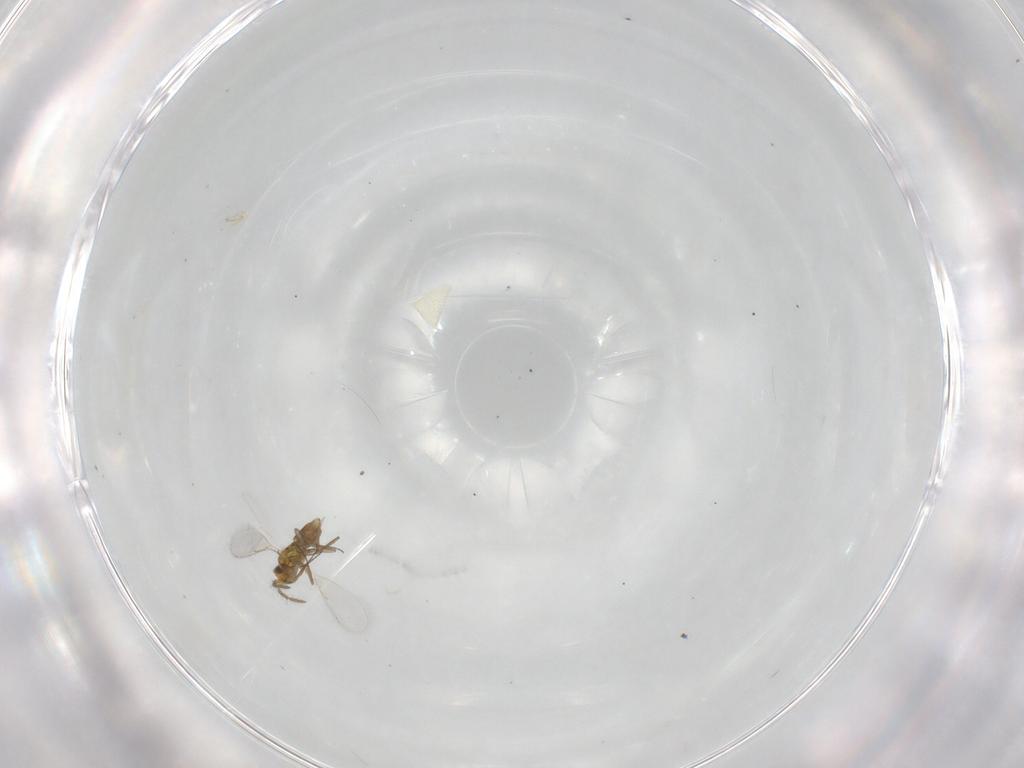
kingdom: Animalia
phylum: Arthropoda
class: Insecta
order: Hymenoptera
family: Aphelinidae
